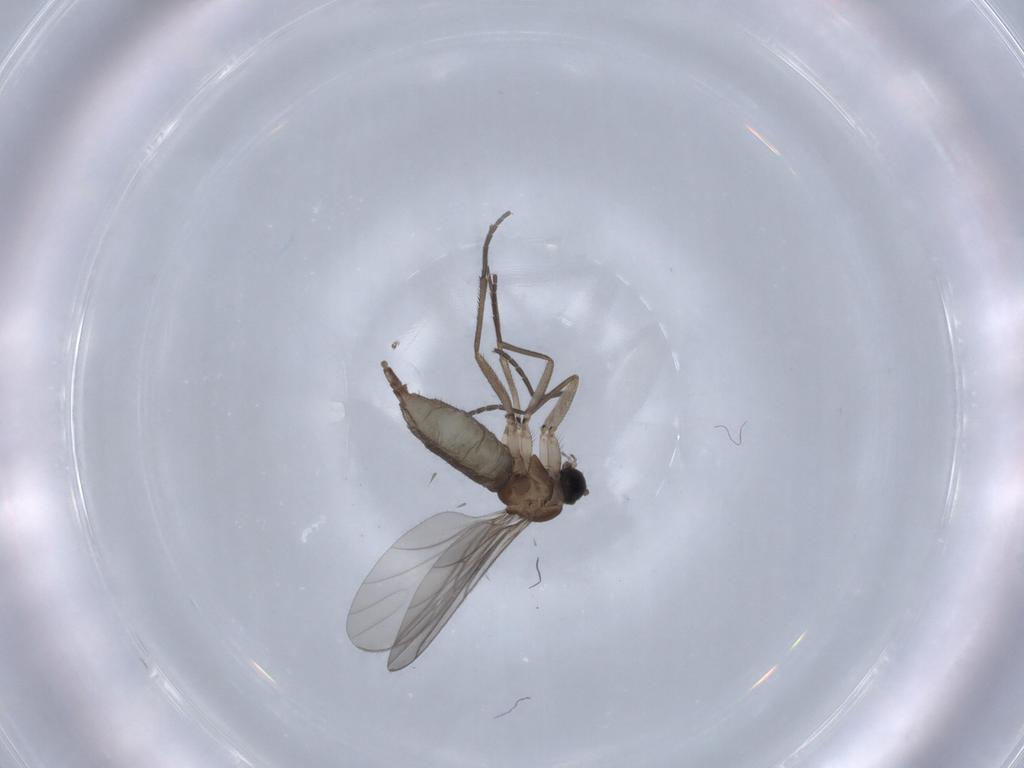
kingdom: Animalia
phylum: Arthropoda
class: Insecta
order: Diptera
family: Sciaridae
